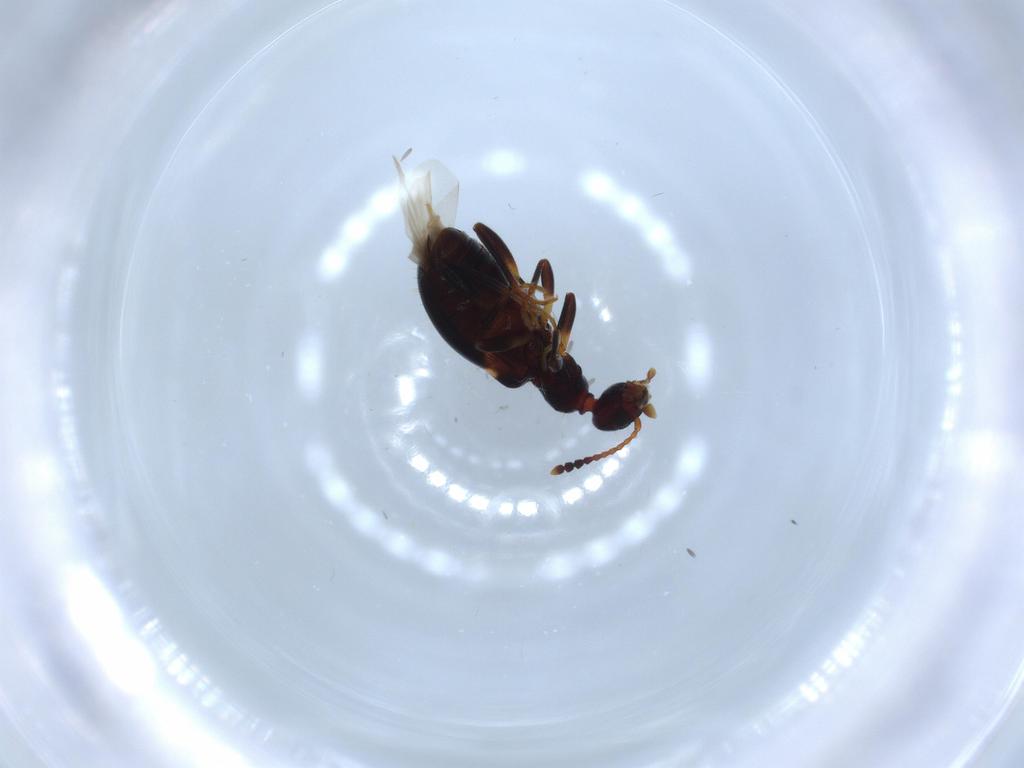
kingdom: Animalia
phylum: Arthropoda
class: Insecta
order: Coleoptera
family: Anthicidae
